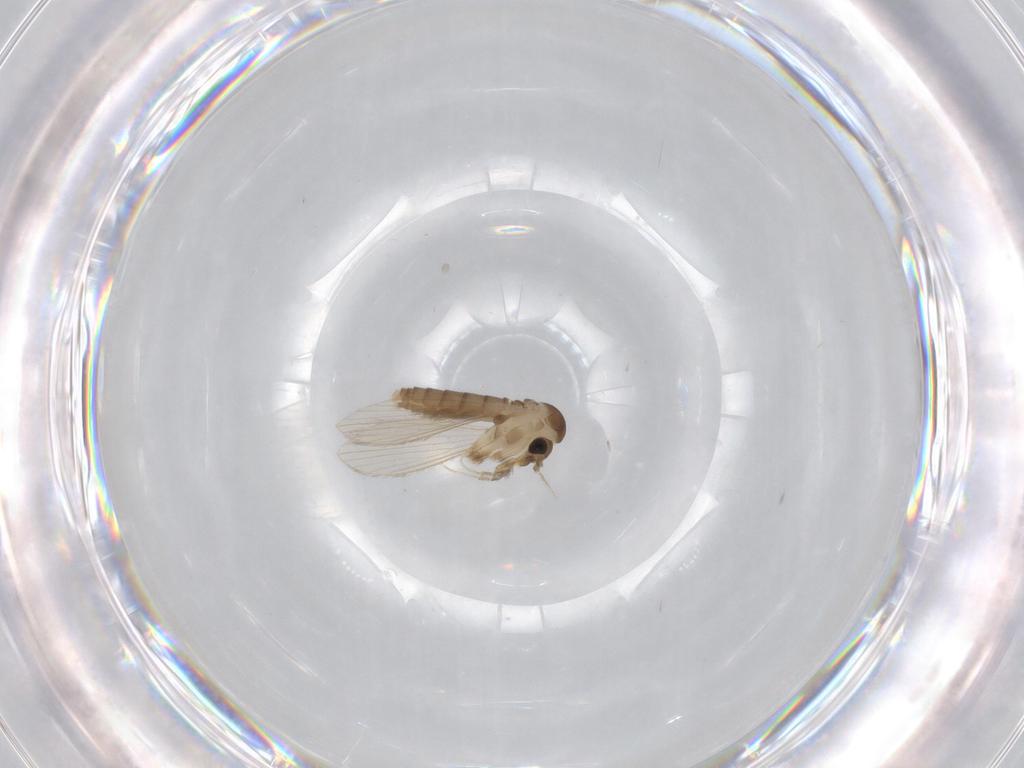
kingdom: Animalia
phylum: Arthropoda
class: Insecta
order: Diptera
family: Psychodidae
